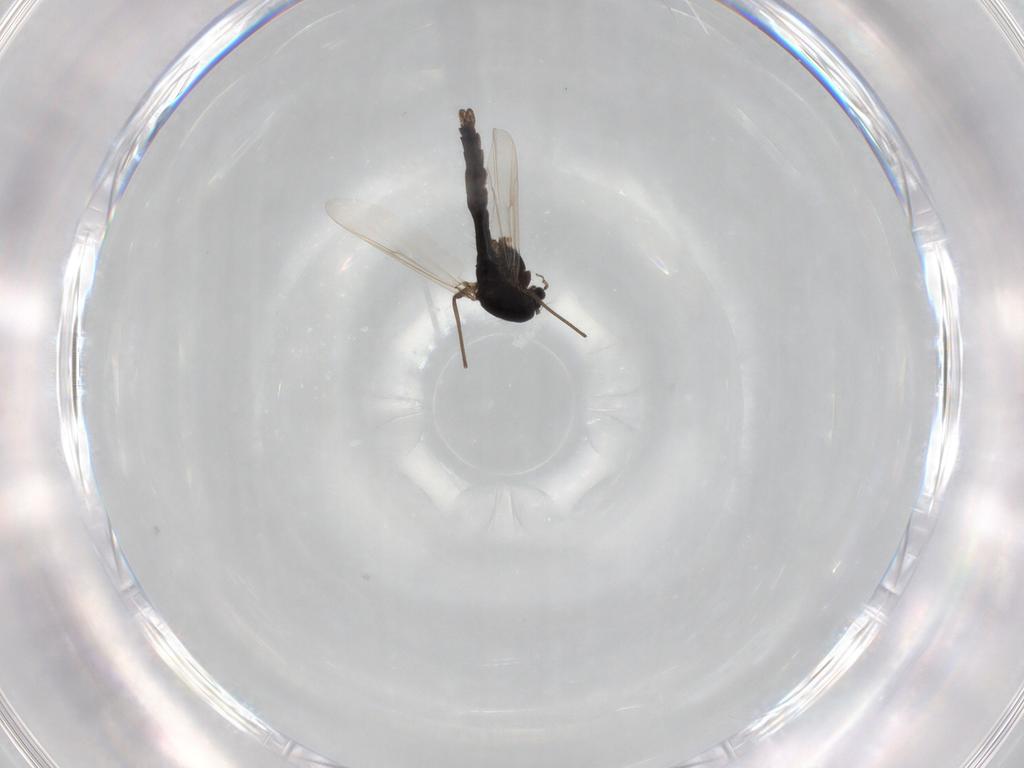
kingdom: Animalia
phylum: Arthropoda
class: Insecta
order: Diptera
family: Chironomidae
